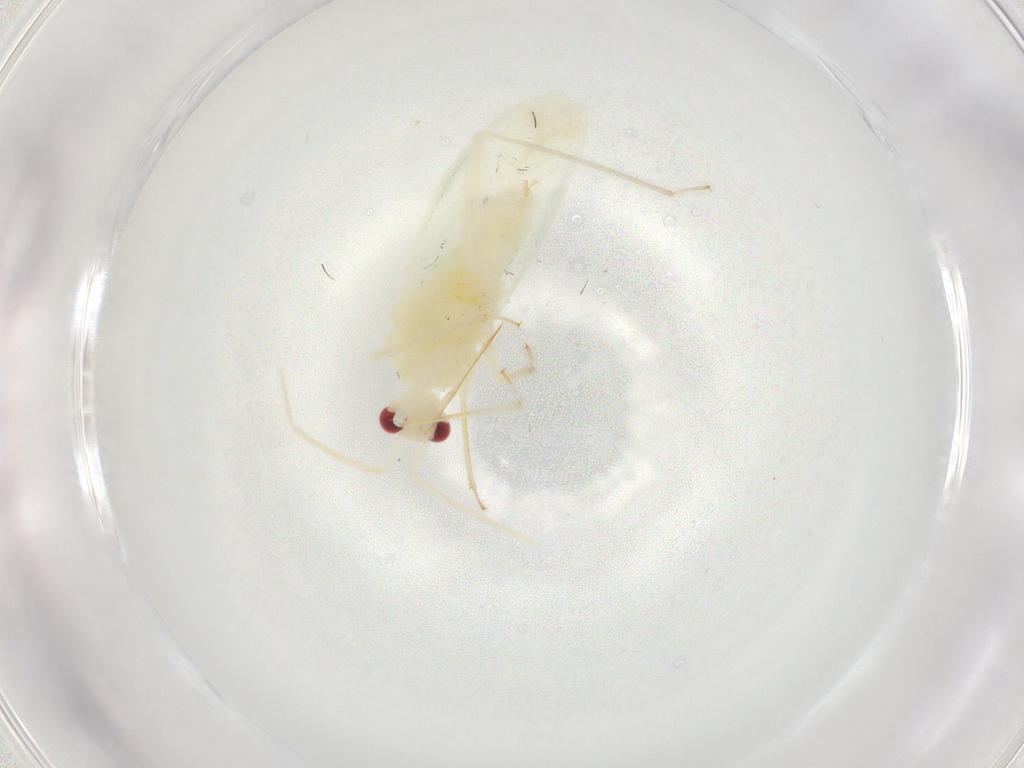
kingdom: Animalia
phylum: Arthropoda
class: Insecta
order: Hemiptera
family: Miridae
